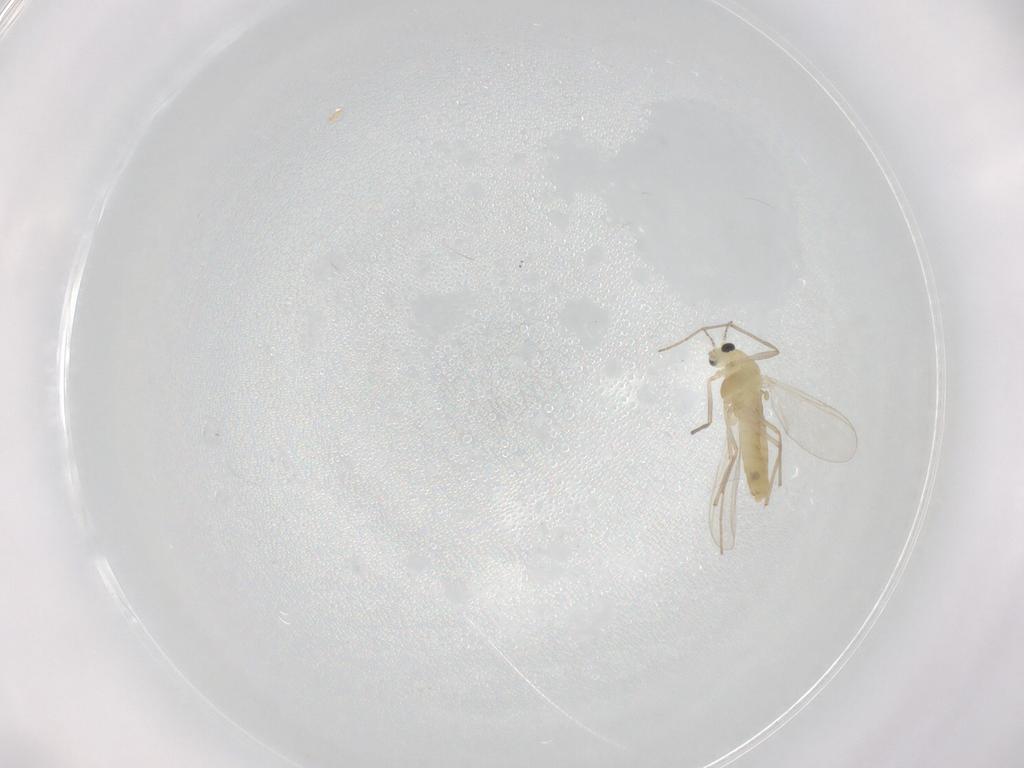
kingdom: Animalia
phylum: Arthropoda
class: Insecta
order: Diptera
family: Chironomidae
